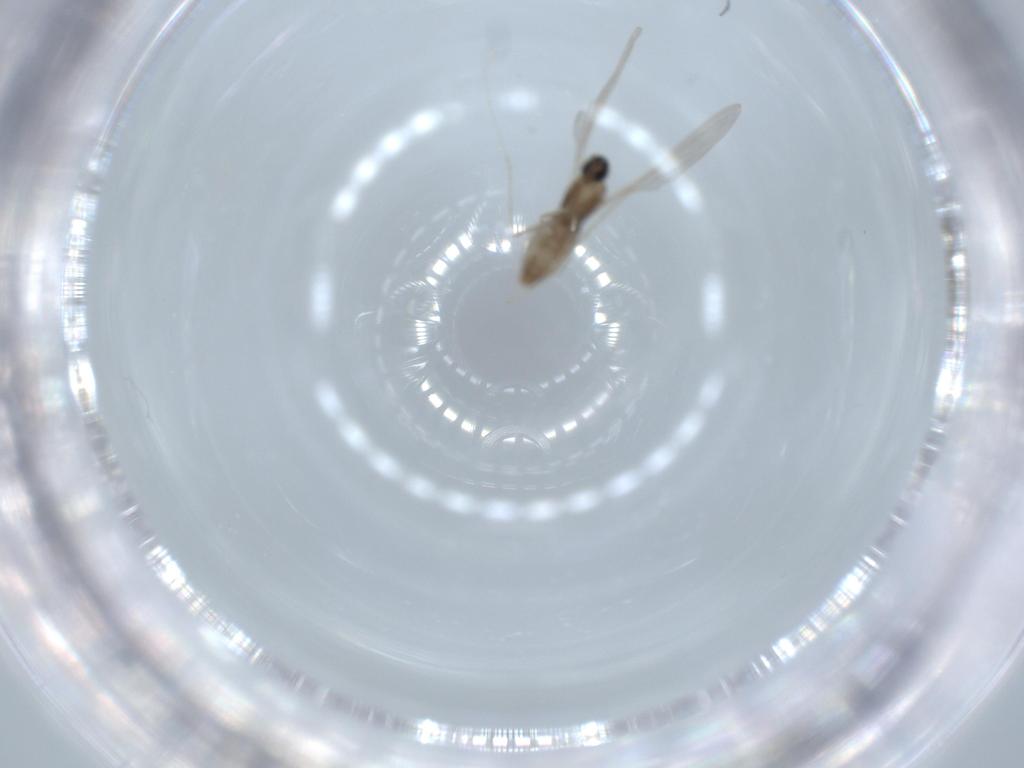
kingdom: Animalia
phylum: Arthropoda
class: Insecta
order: Diptera
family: Cecidomyiidae
